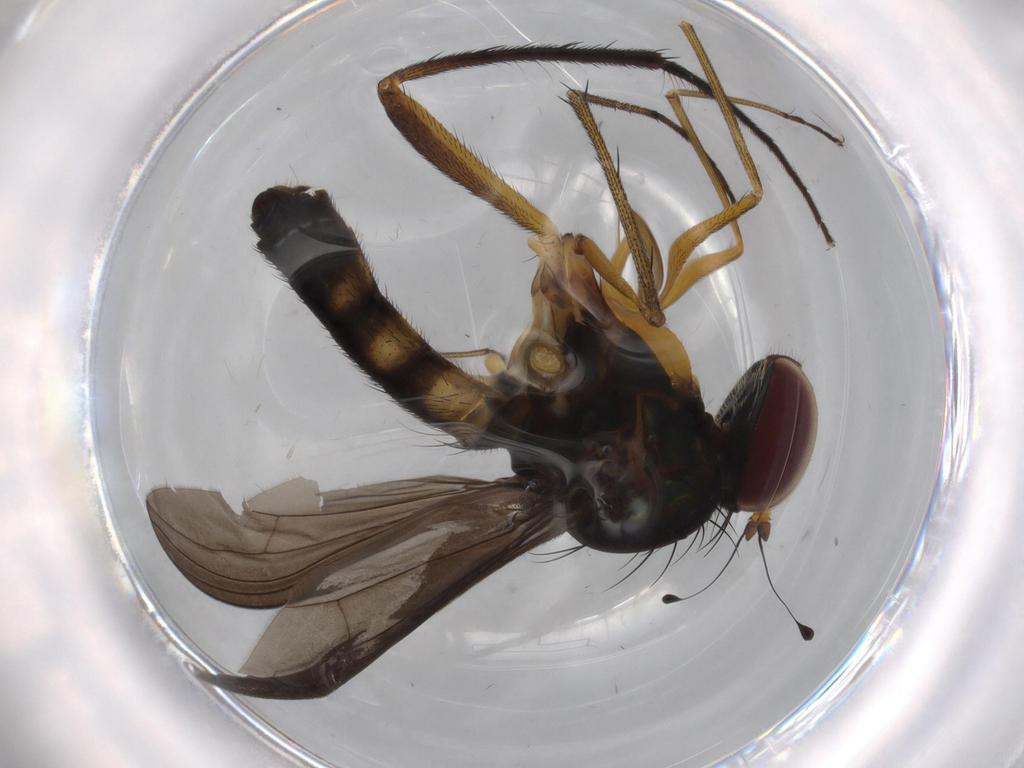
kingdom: Animalia
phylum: Arthropoda
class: Insecta
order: Diptera
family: Dolichopodidae
